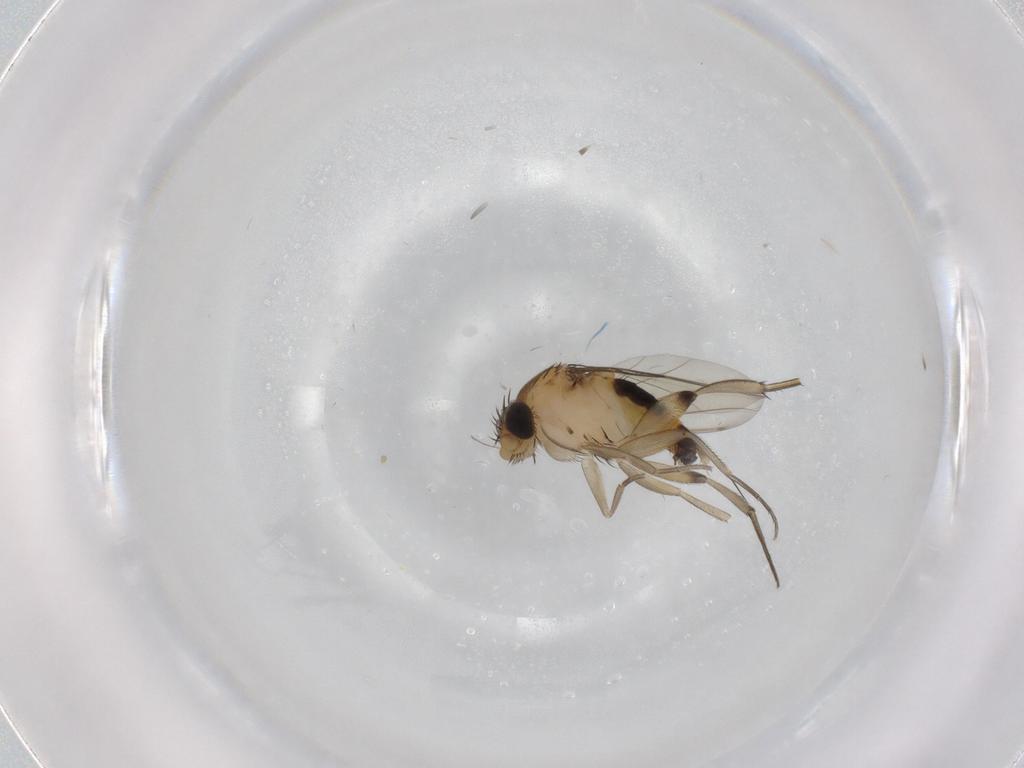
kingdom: Animalia
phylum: Arthropoda
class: Insecta
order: Diptera
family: Phoridae
